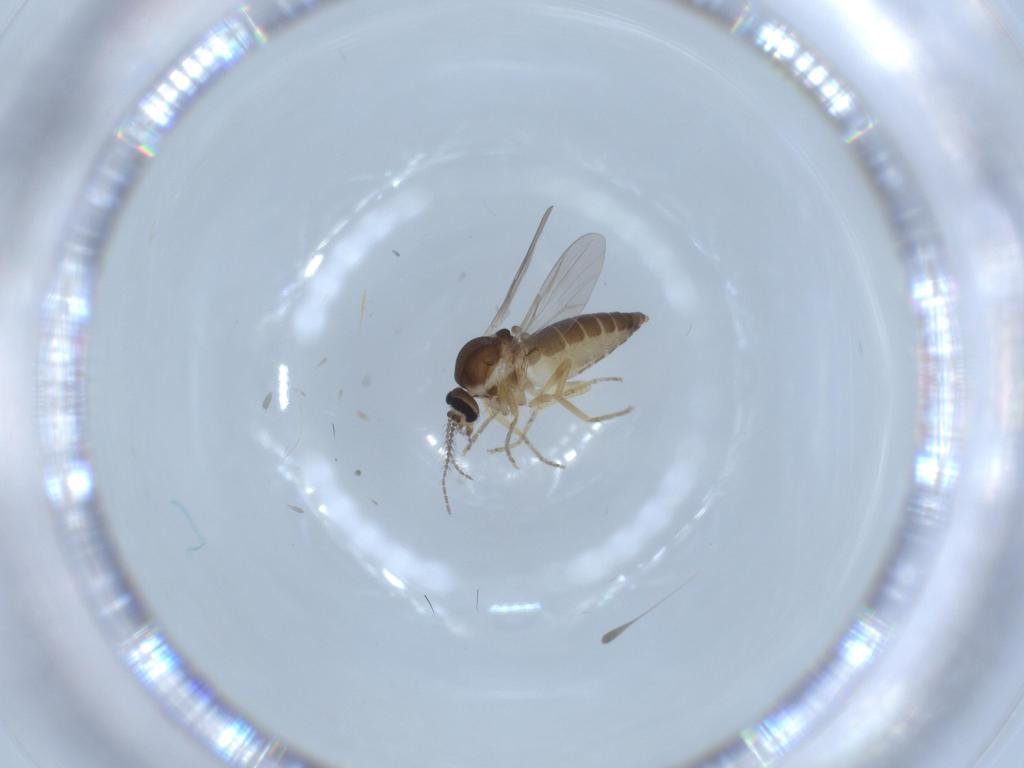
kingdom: Animalia
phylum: Arthropoda
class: Insecta
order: Diptera
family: Ceratopogonidae
